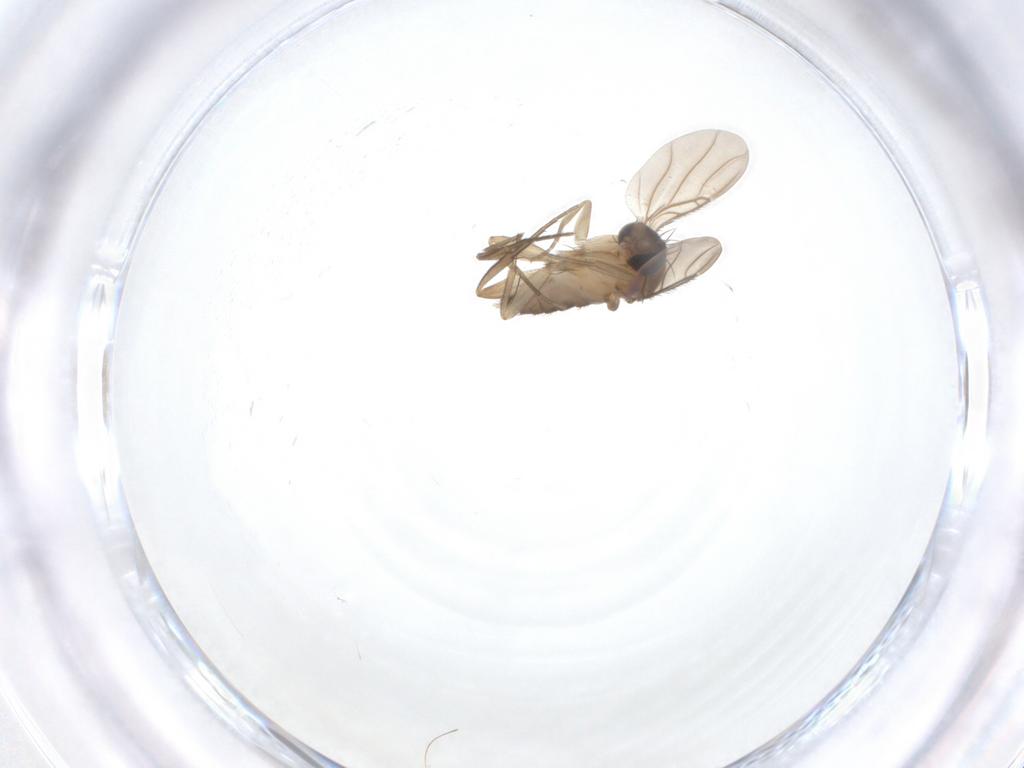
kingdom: Animalia
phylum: Arthropoda
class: Insecta
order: Diptera
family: Phoridae
